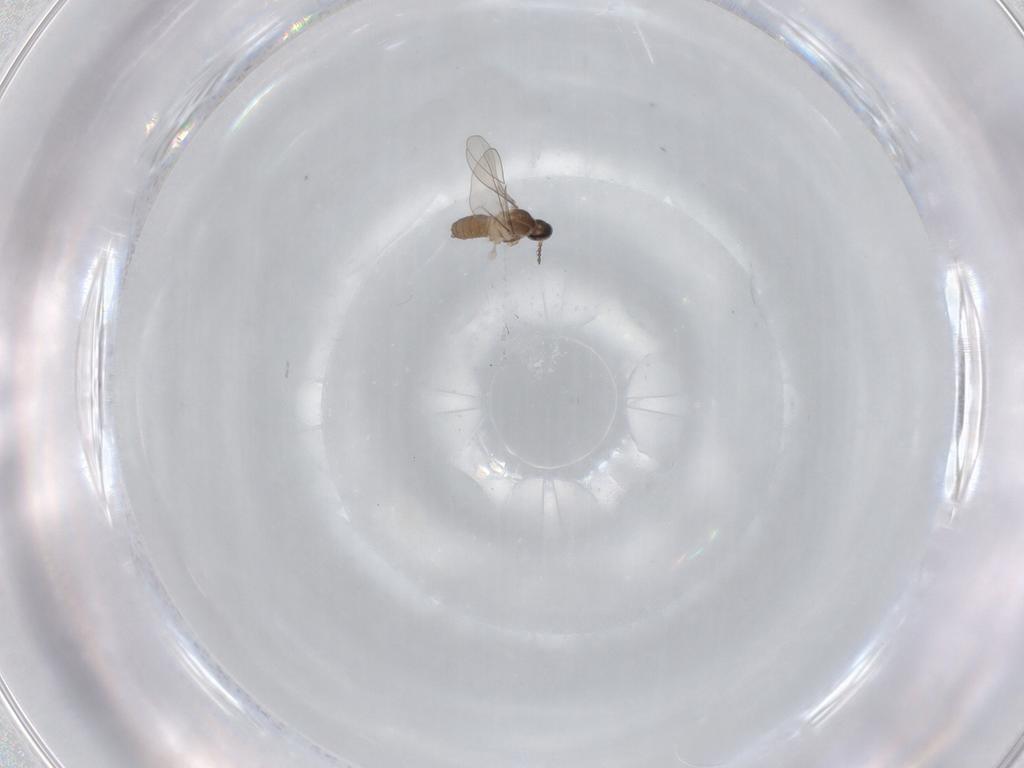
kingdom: Animalia
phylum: Arthropoda
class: Insecta
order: Diptera
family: Cecidomyiidae
